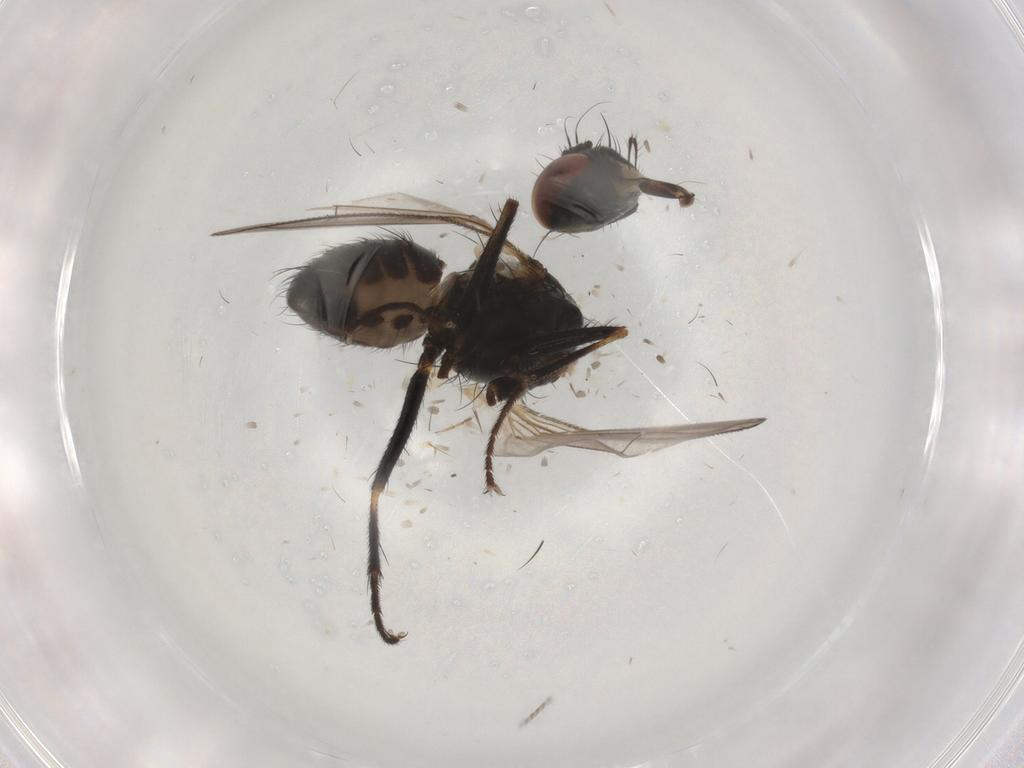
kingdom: Animalia
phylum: Arthropoda
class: Insecta
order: Diptera
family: Muscidae
